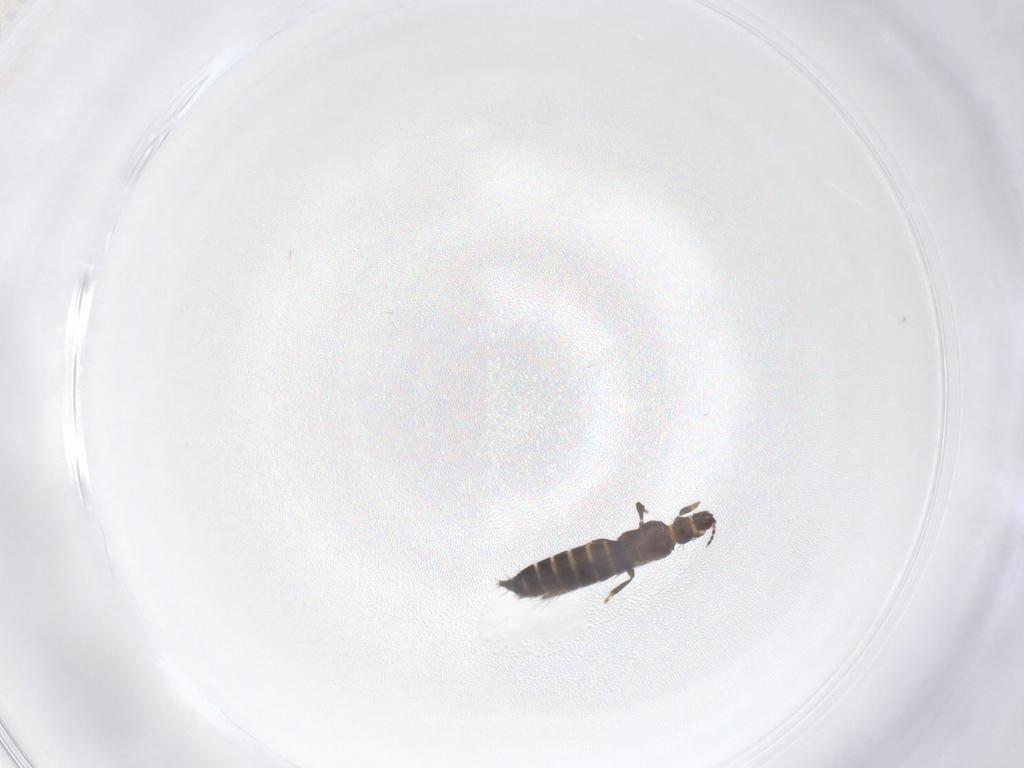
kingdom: Animalia
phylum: Arthropoda
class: Insecta
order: Thysanoptera
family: Thripidae
